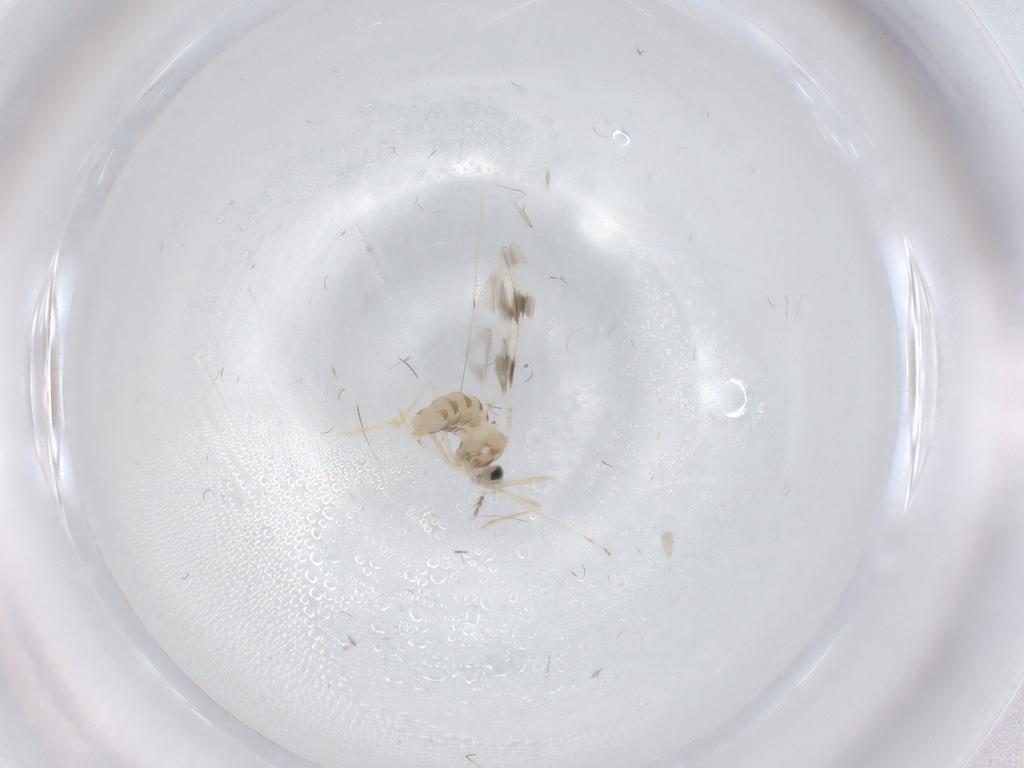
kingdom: Animalia
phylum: Arthropoda
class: Insecta
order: Diptera
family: Cecidomyiidae
